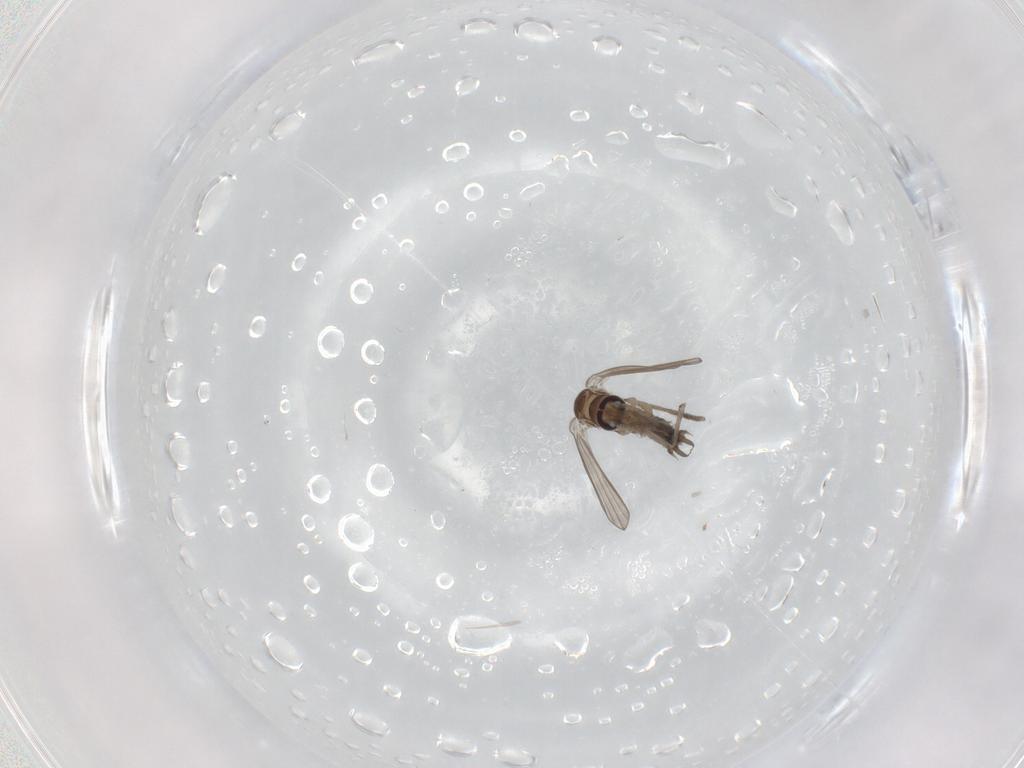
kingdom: Animalia
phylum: Arthropoda
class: Insecta
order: Diptera
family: Psychodidae
